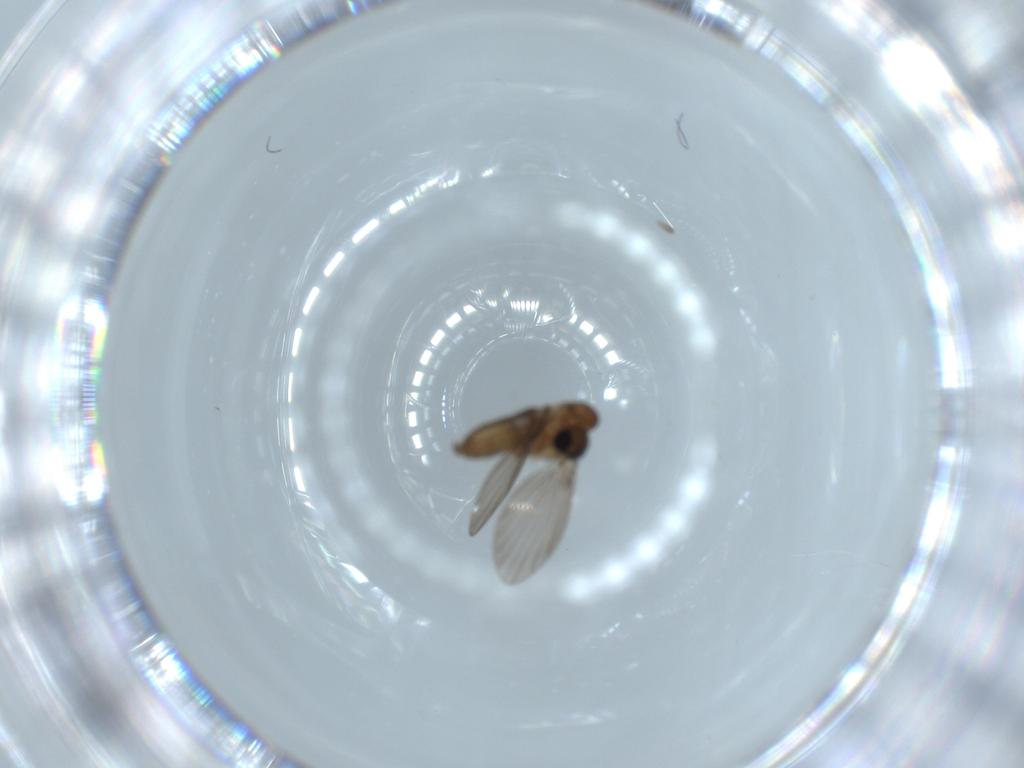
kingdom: Animalia
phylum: Arthropoda
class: Insecta
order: Diptera
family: Psychodidae
